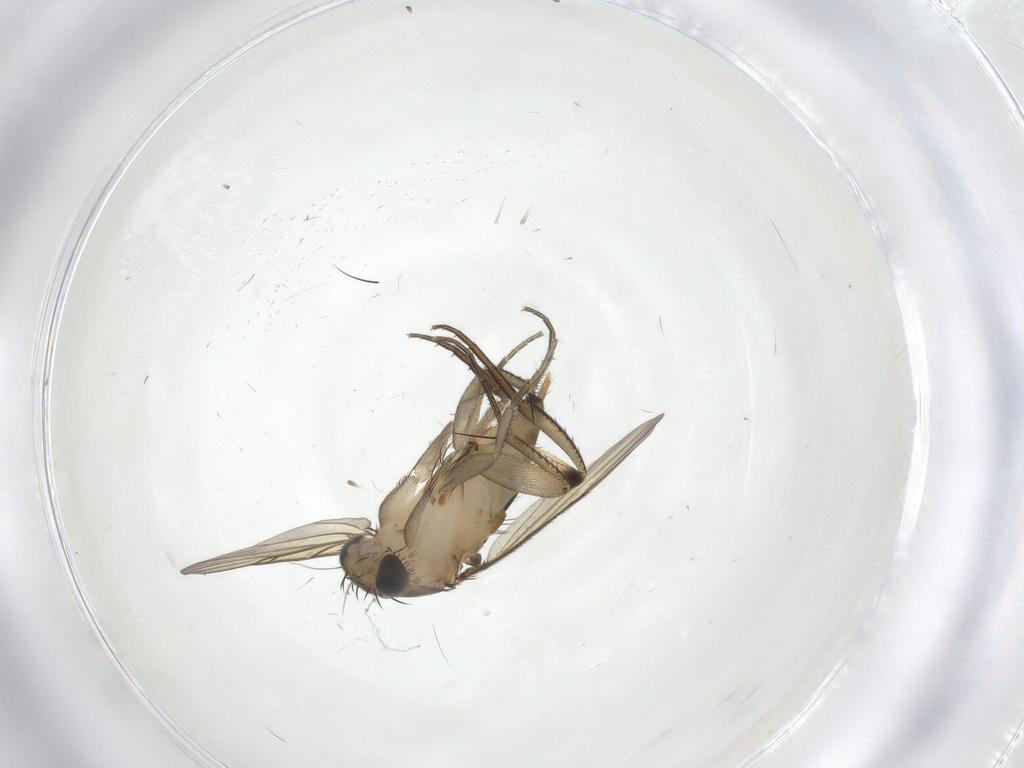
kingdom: Animalia
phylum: Arthropoda
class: Insecta
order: Diptera
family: Phoridae
